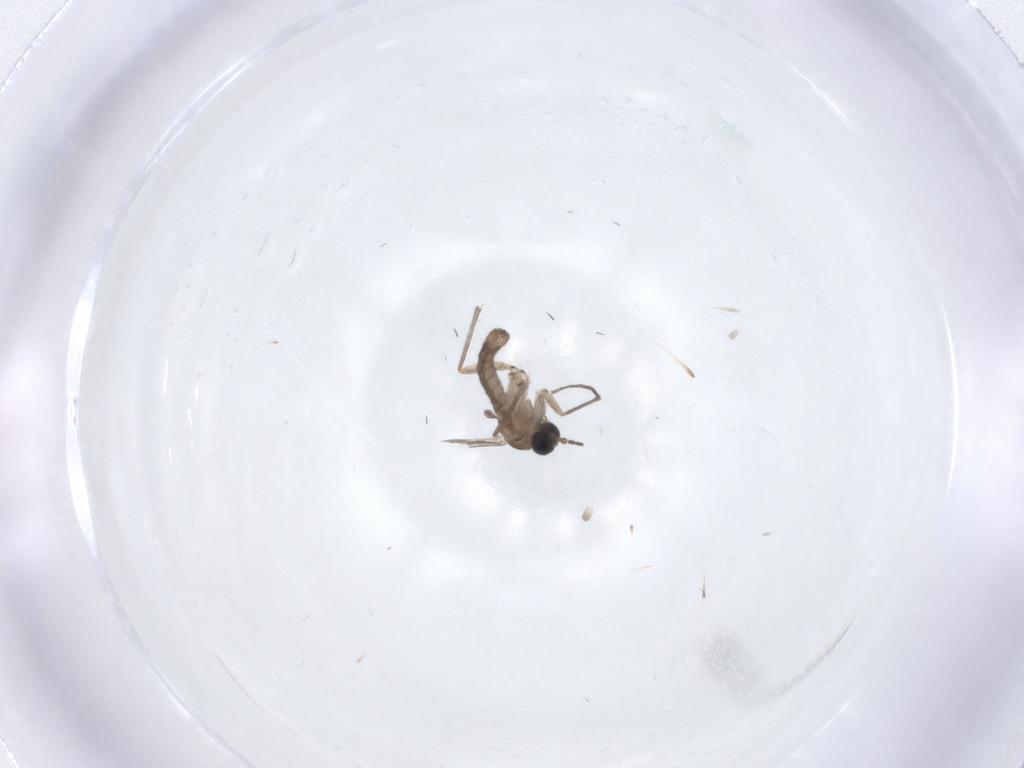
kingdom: Animalia
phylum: Arthropoda
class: Insecta
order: Diptera
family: Sciaridae
